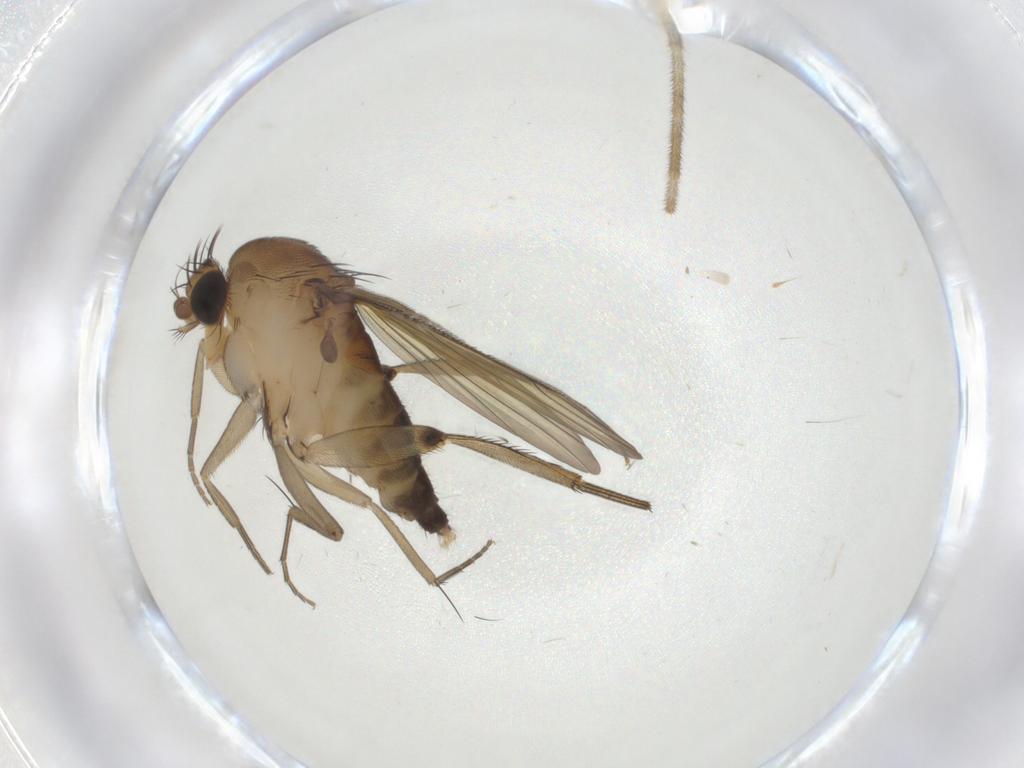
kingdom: Animalia
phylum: Arthropoda
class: Insecta
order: Diptera
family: Phoridae
